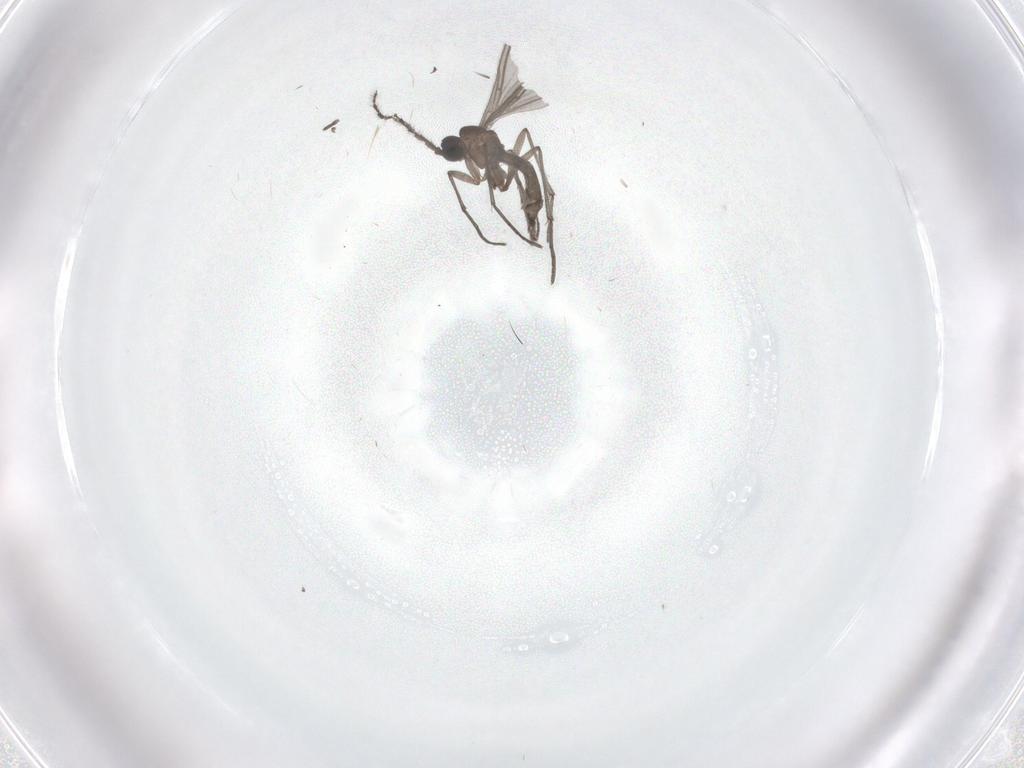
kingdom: Animalia
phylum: Arthropoda
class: Insecta
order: Diptera
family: Sciaridae
